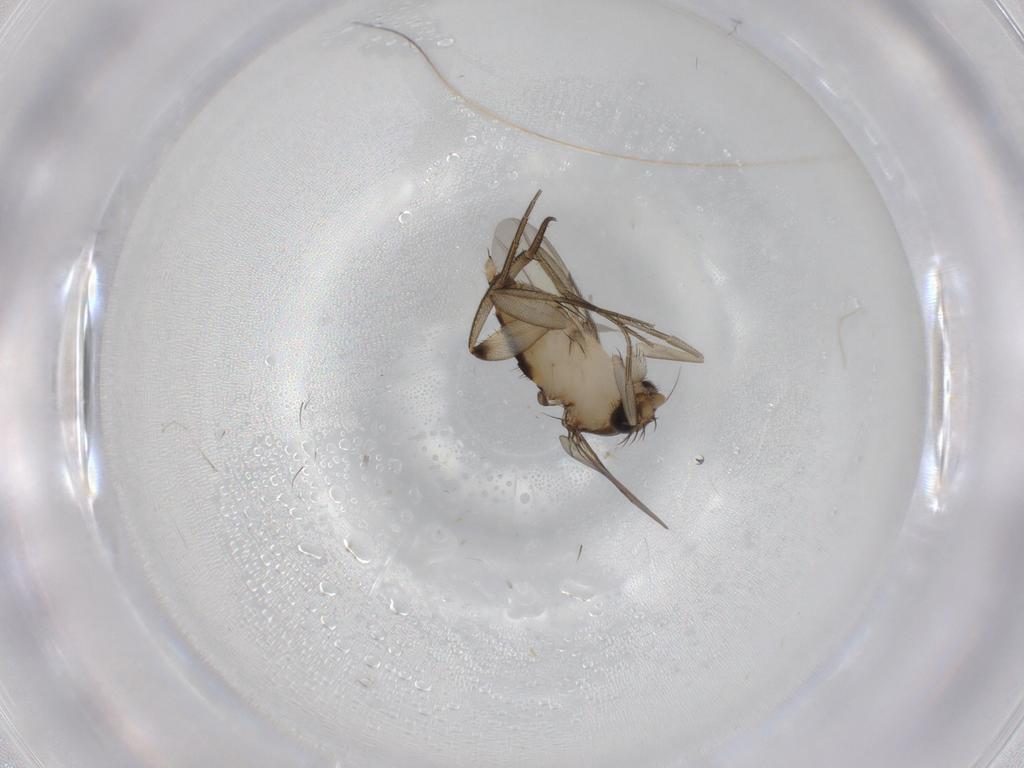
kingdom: Animalia
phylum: Arthropoda
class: Insecta
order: Diptera
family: Phoridae
